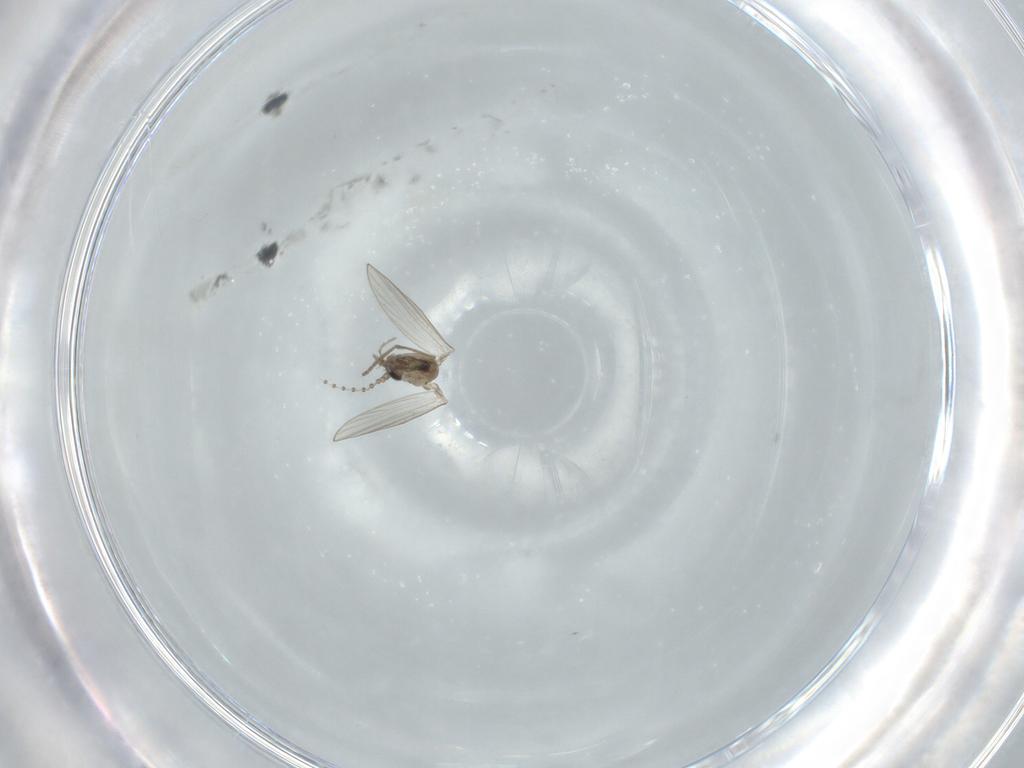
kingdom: Animalia
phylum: Arthropoda
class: Insecta
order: Diptera
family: Psychodidae
